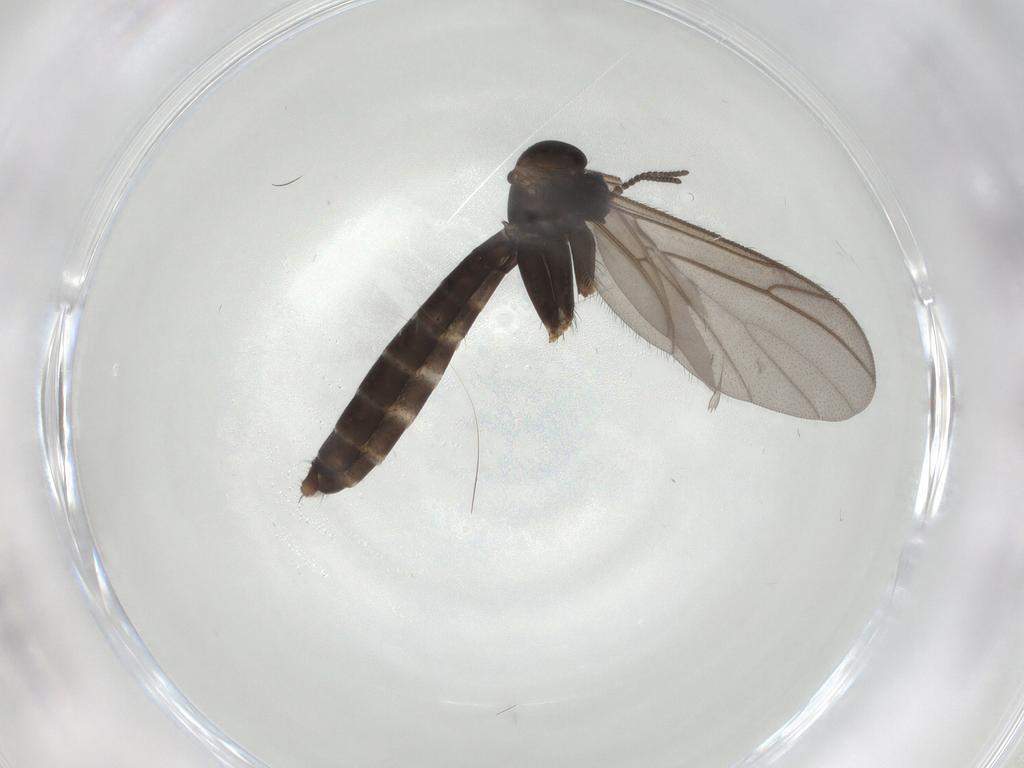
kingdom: Animalia
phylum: Arthropoda
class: Insecta
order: Diptera
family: Ditomyiidae
